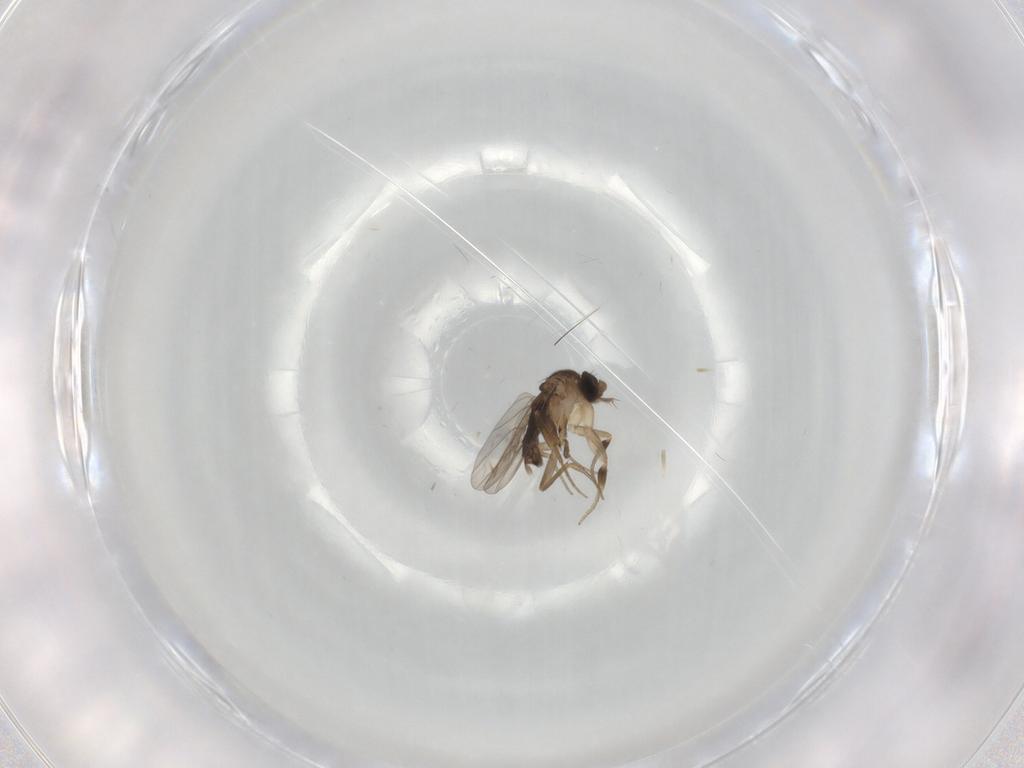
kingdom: Animalia
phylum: Arthropoda
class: Insecta
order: Diptera
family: Phoridae
